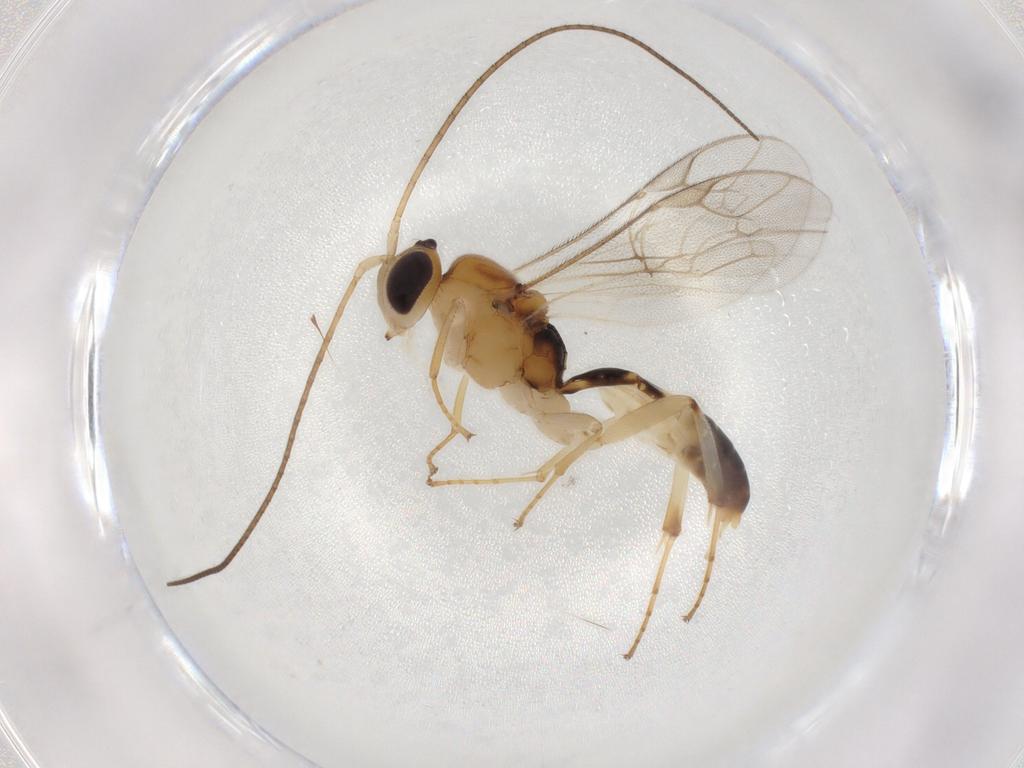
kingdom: Animalia
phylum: Arthropoda
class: Insecta
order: Hymenoptera
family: Ichneumonidae
